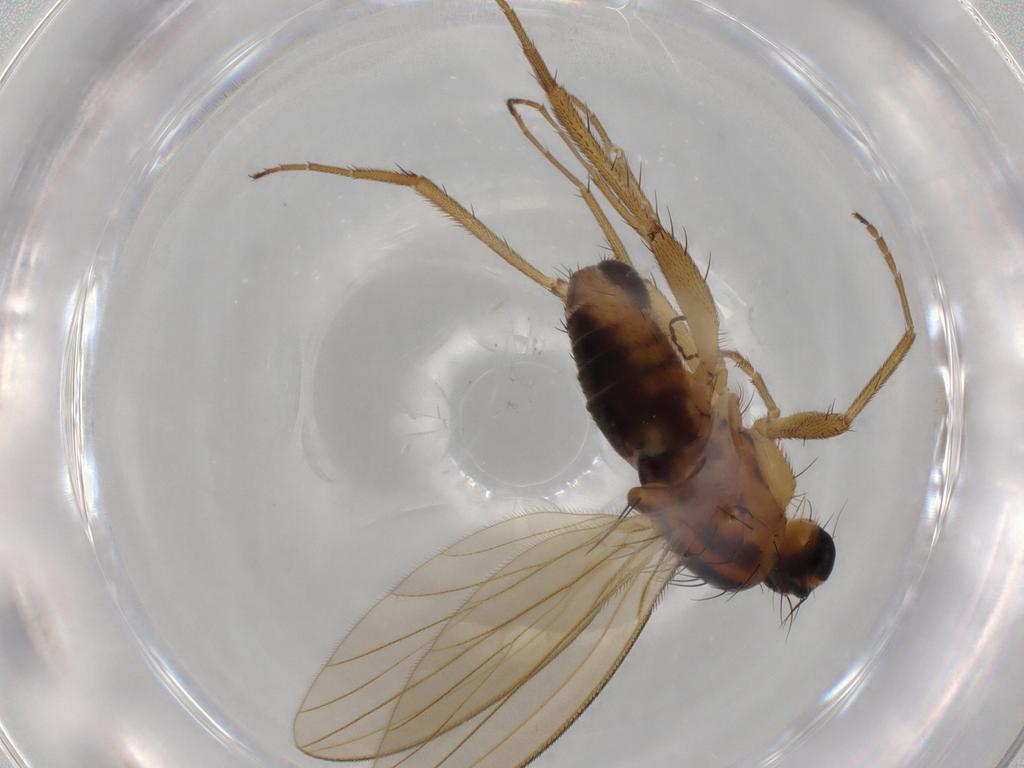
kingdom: Animalia
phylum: Arthropoda
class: Insecta
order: Diptera
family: Lonchopteridae
